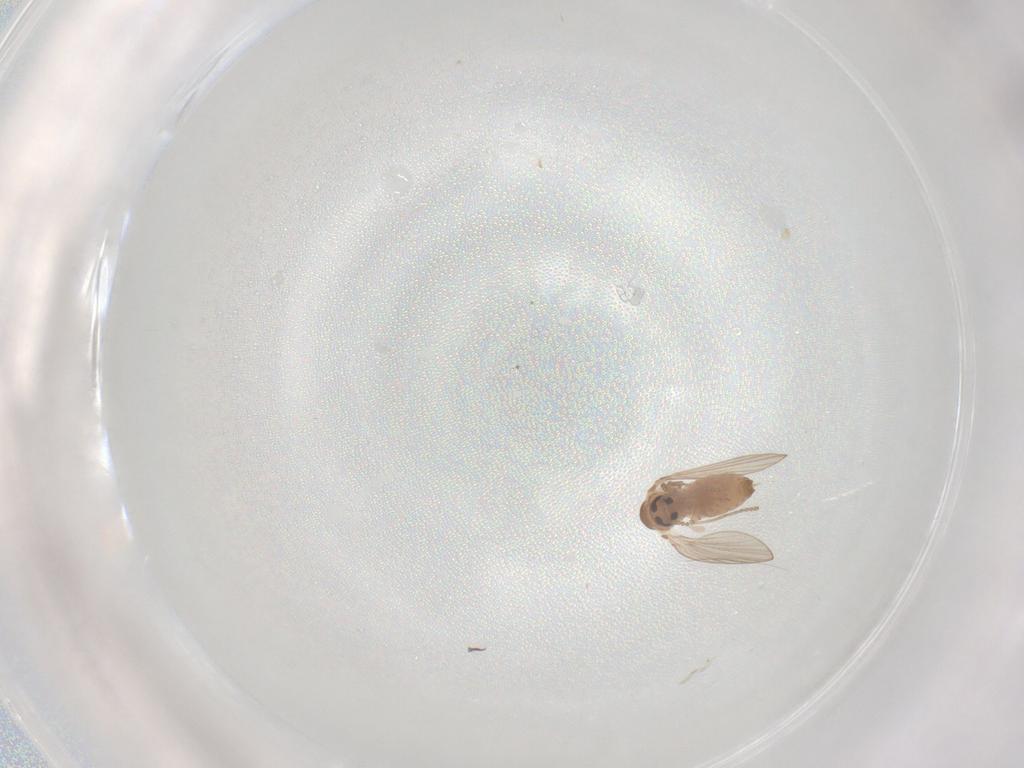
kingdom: Animalia
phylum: Arthropoda
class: Insecta
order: Diptera
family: Psychodidae
